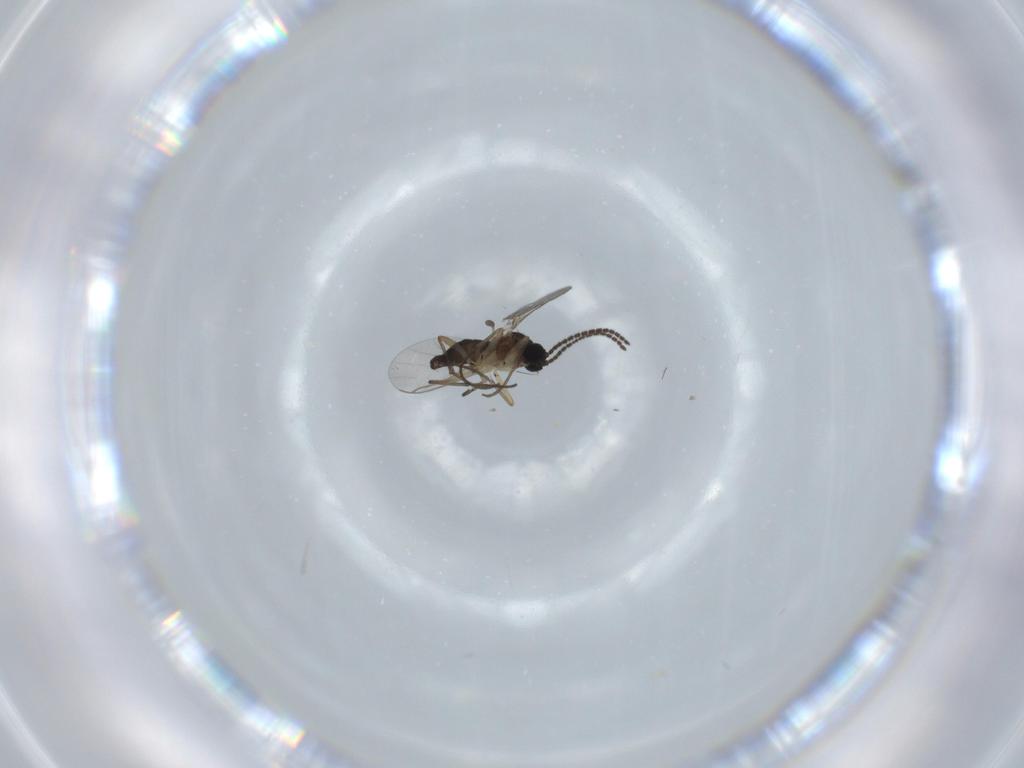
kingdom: Animalia
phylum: Arthropoda
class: Insecta
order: Diptera
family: Sciaridae
